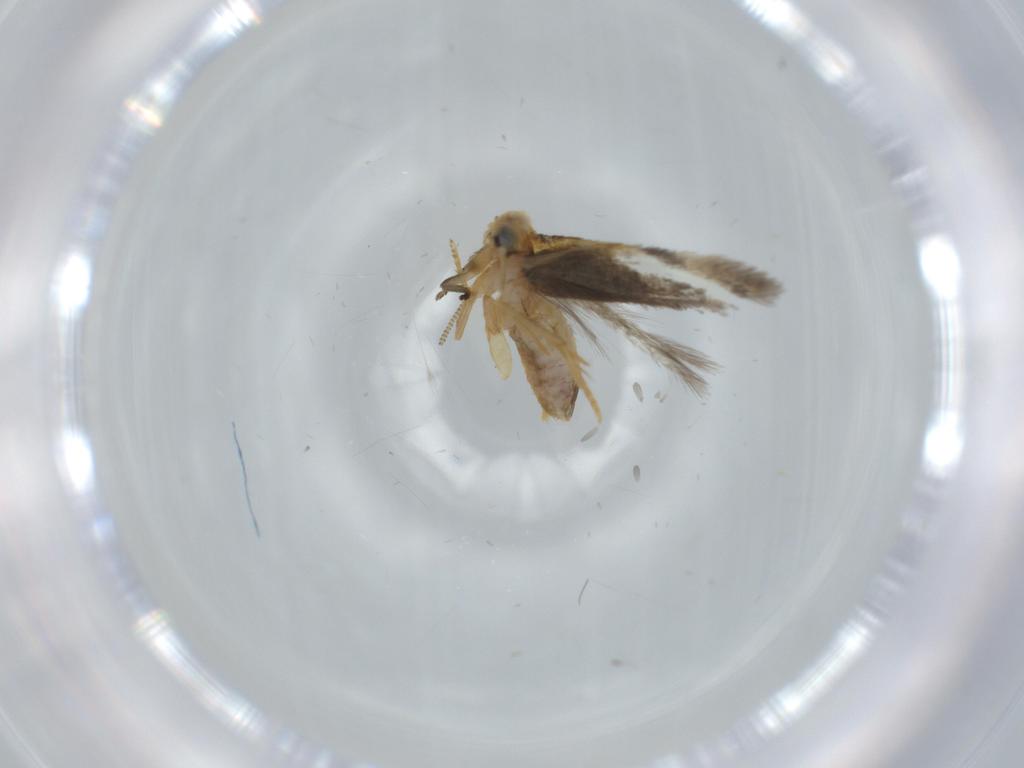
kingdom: Animalia
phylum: Arthropoda
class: Insecta
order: Lepidoptera
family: Nepticulidae
